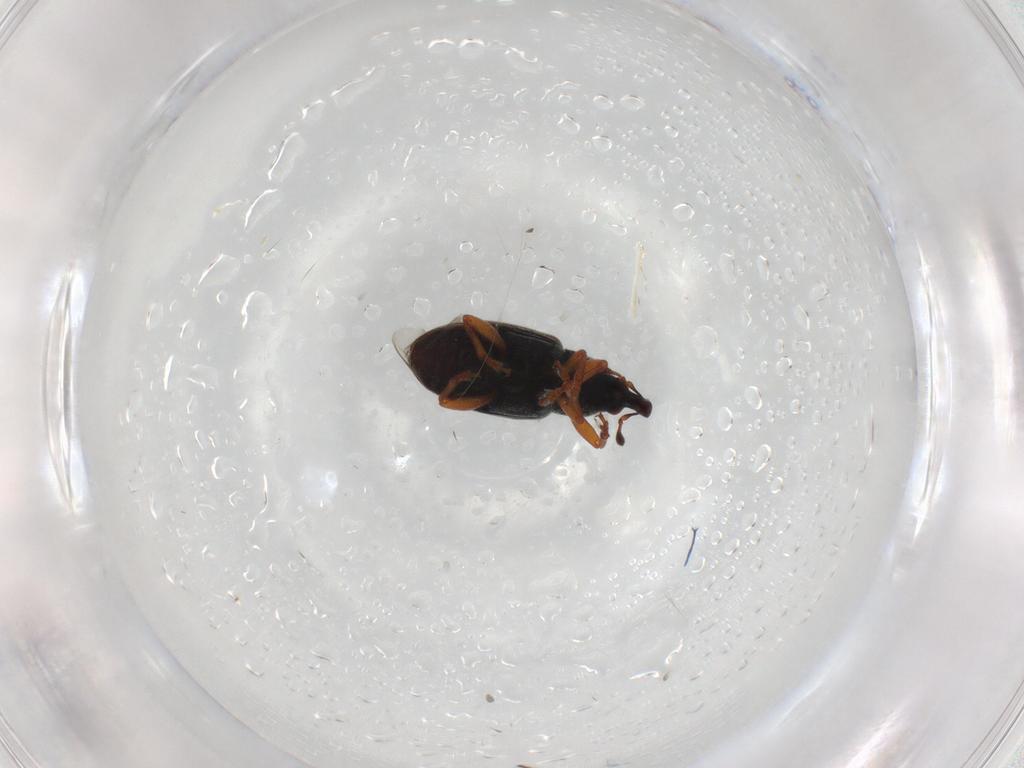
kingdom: Animalia
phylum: Arthropoda
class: Insecta
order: Coleoptera
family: Curculionidae
